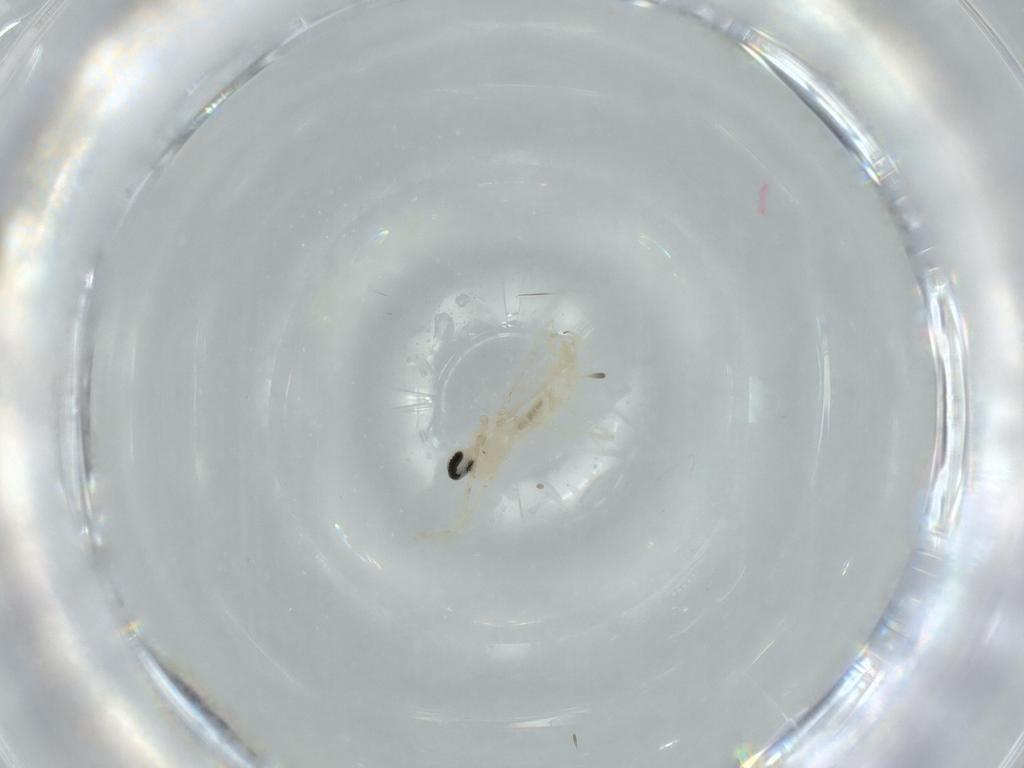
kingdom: Animalia
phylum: Arthropoda
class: Insecta
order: Diptera
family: Cecidomyiidae
